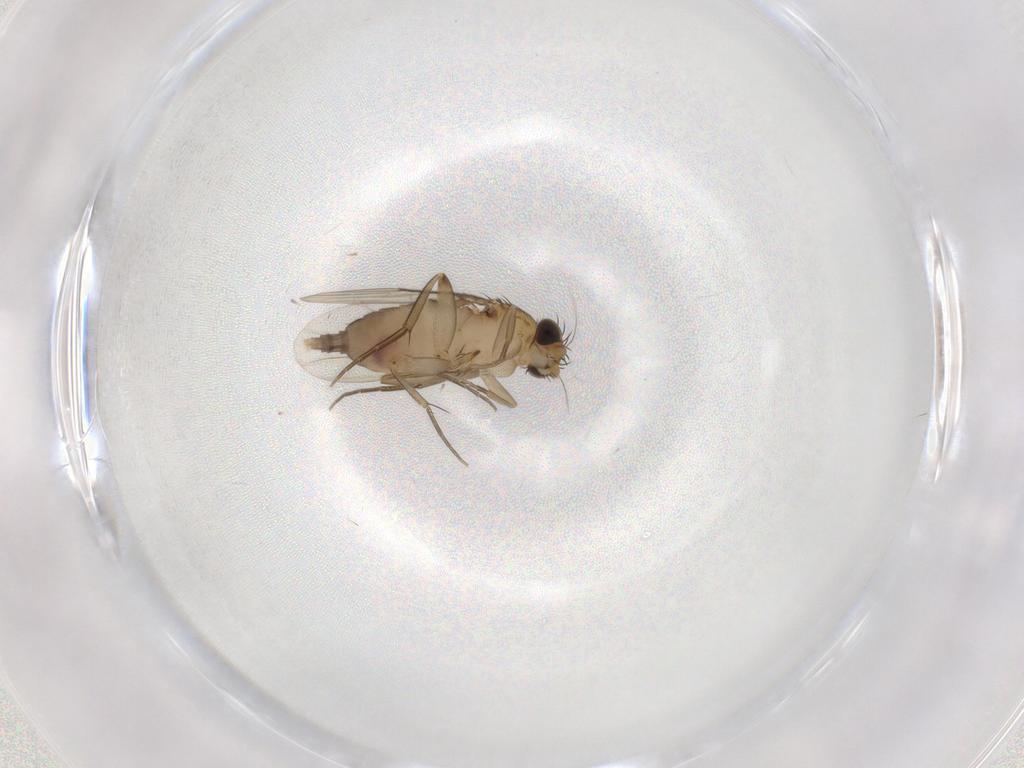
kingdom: Animalia
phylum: Arthropoda
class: Insecta
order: Diptera
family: Phoridae
